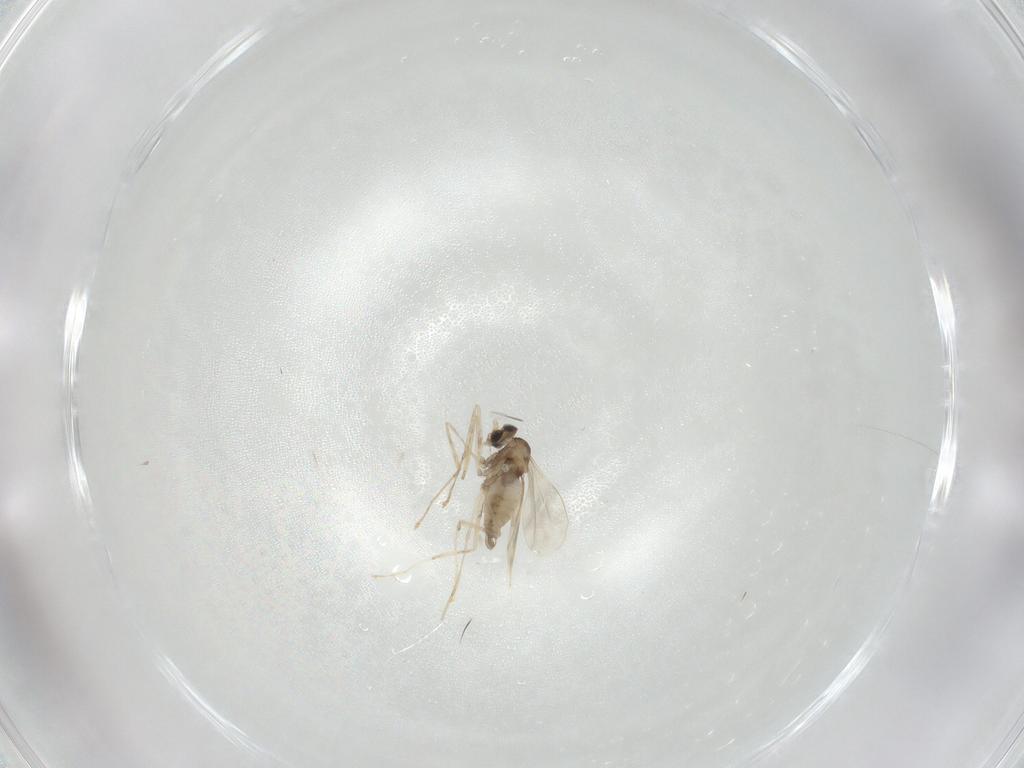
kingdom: Animalia
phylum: Arthropoda
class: Insecta
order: Diptera
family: Cecidomyiidae
